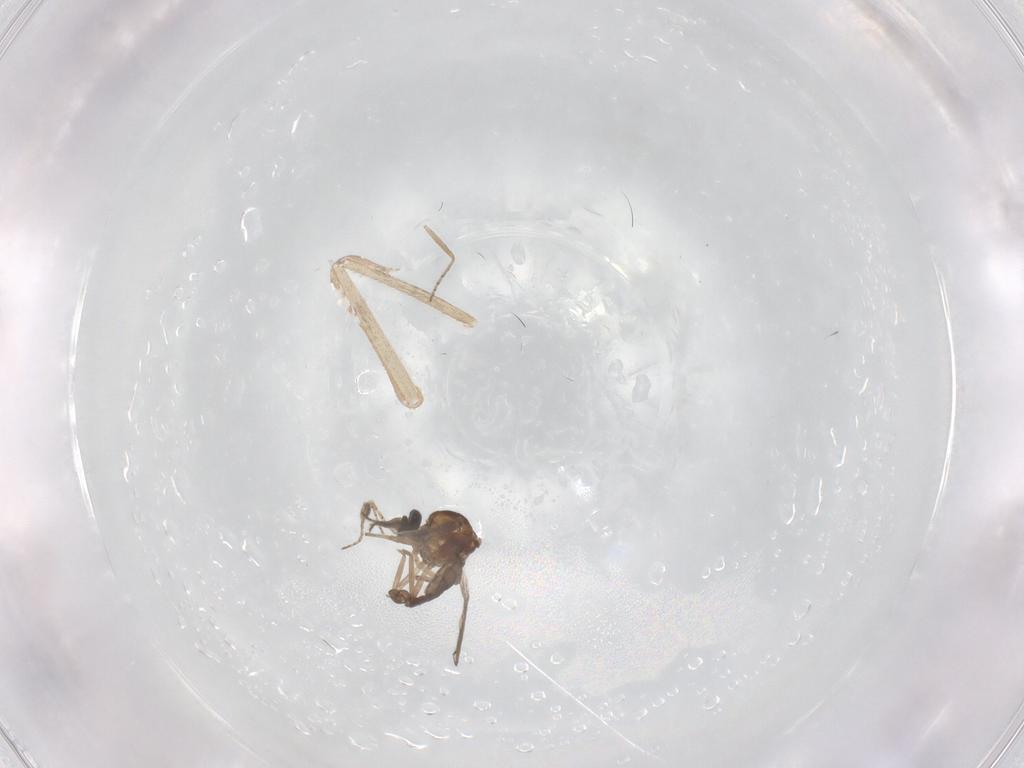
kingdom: Animalia
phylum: Arthropoda
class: Insecta
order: Diptera
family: Ceratopogonidae
